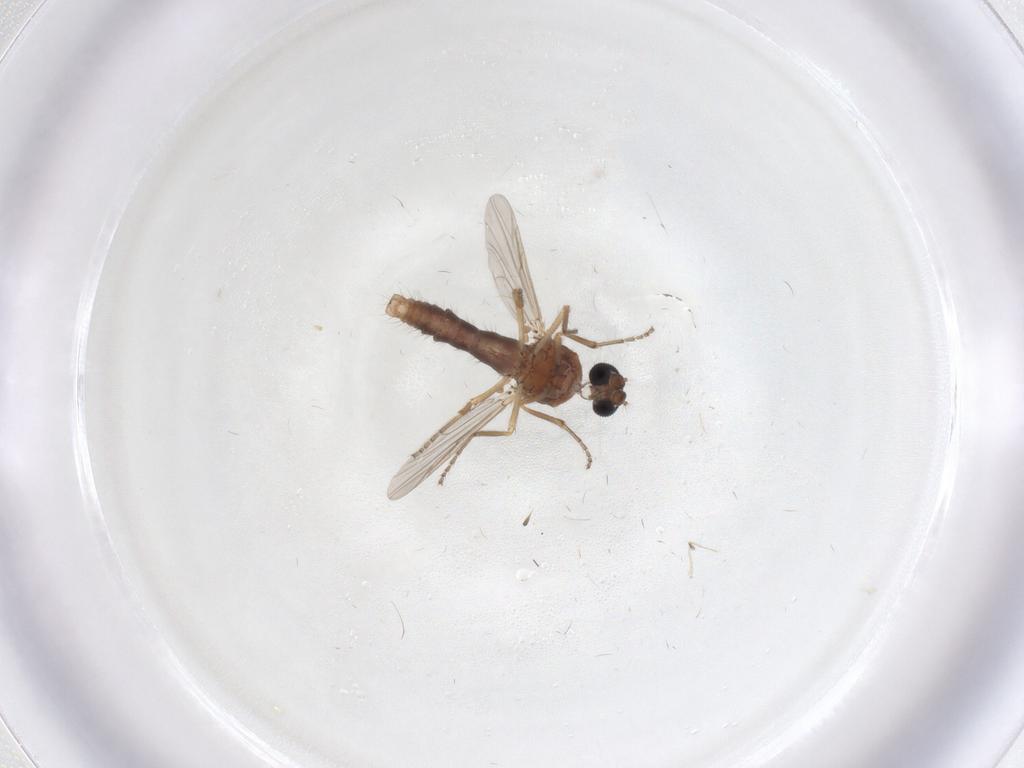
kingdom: Animalia
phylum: Arthropoda
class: Insecta
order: Diptera
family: Ceratopogonidae
